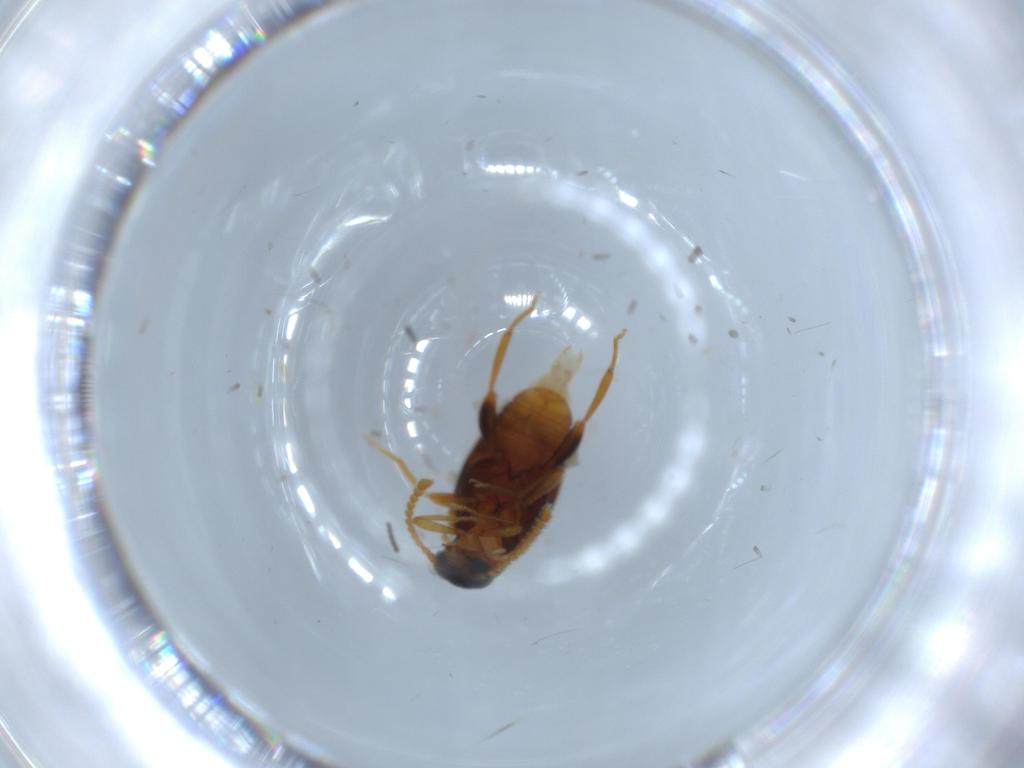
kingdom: Animalia
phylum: Arthropoda
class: Insecta
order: Coleoptera
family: Aderidae
